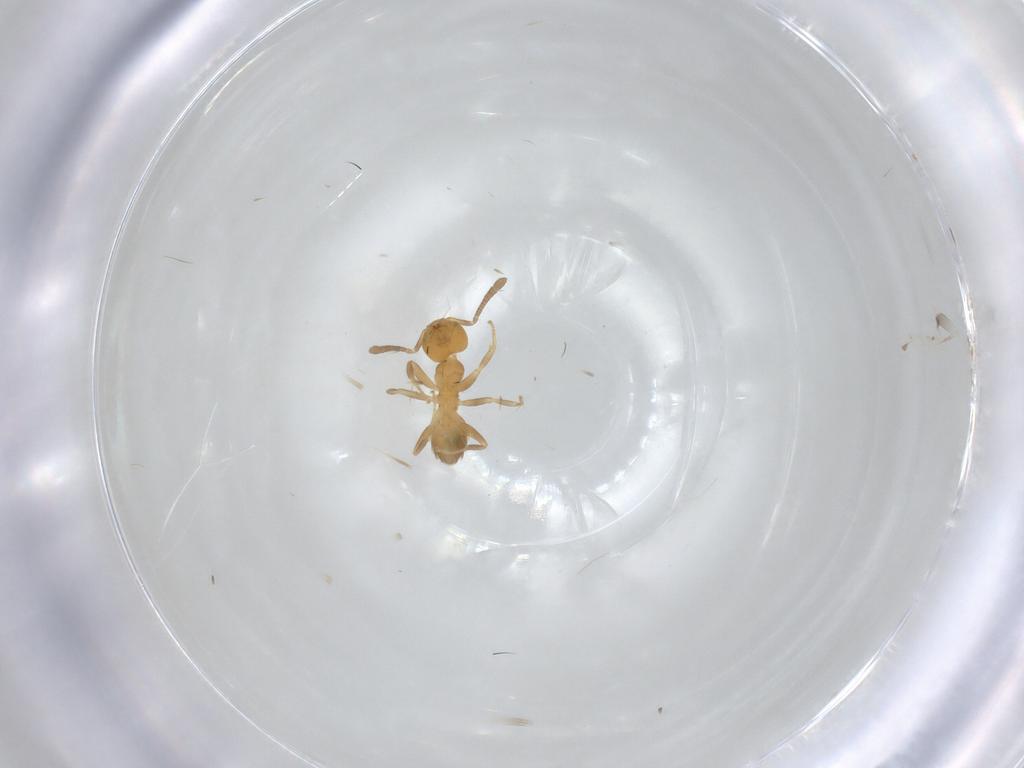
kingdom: Animalia
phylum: Arthropoda
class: Insecta
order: Hymenoptera
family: Formicidae
